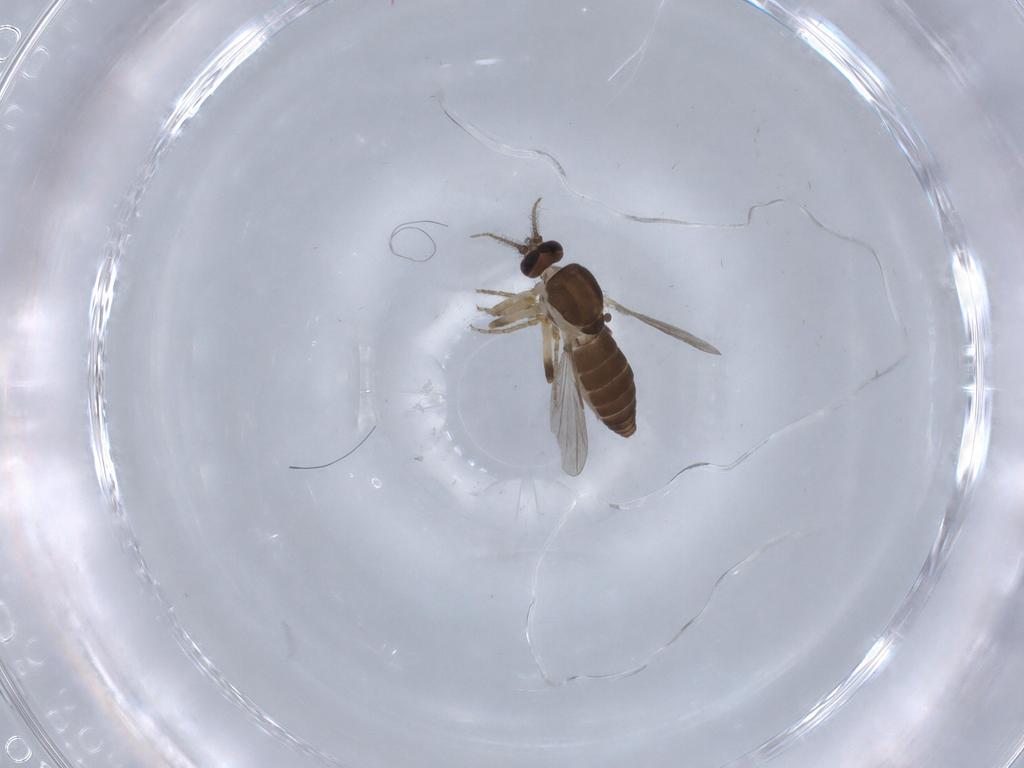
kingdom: Animalia
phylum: Arthropoda
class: Insecta
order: Diptera
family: Ceratopogonidae
